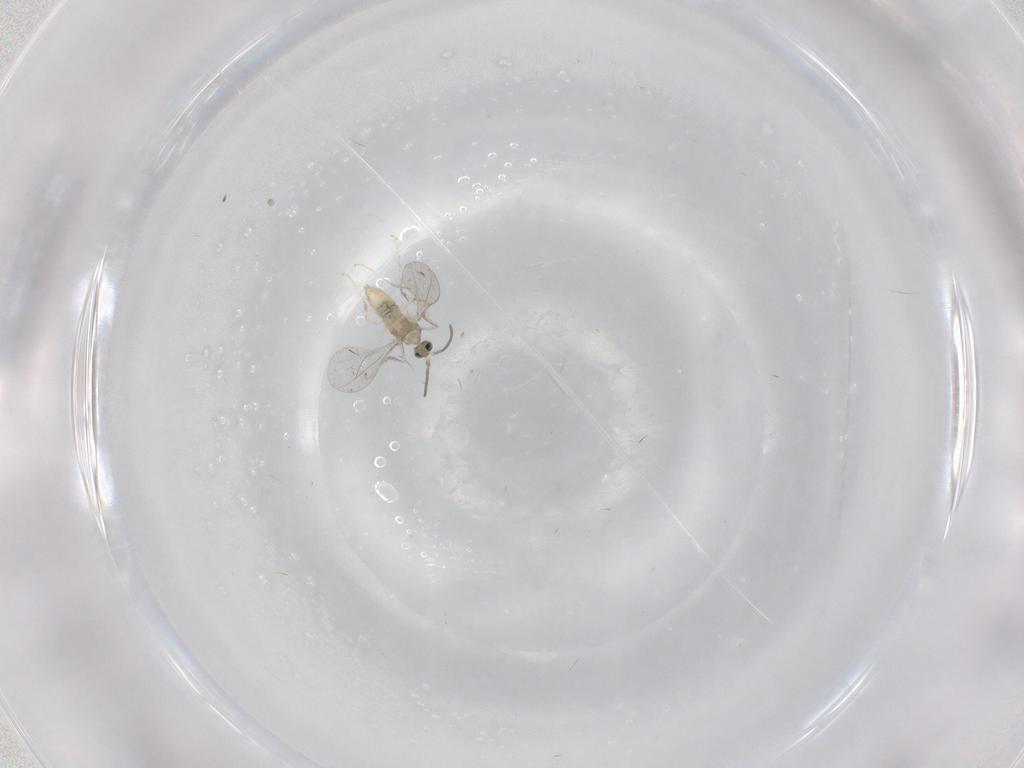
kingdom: Animalia
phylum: Arthropoda
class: Insecta
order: Diptera
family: Cecidomyiidae
